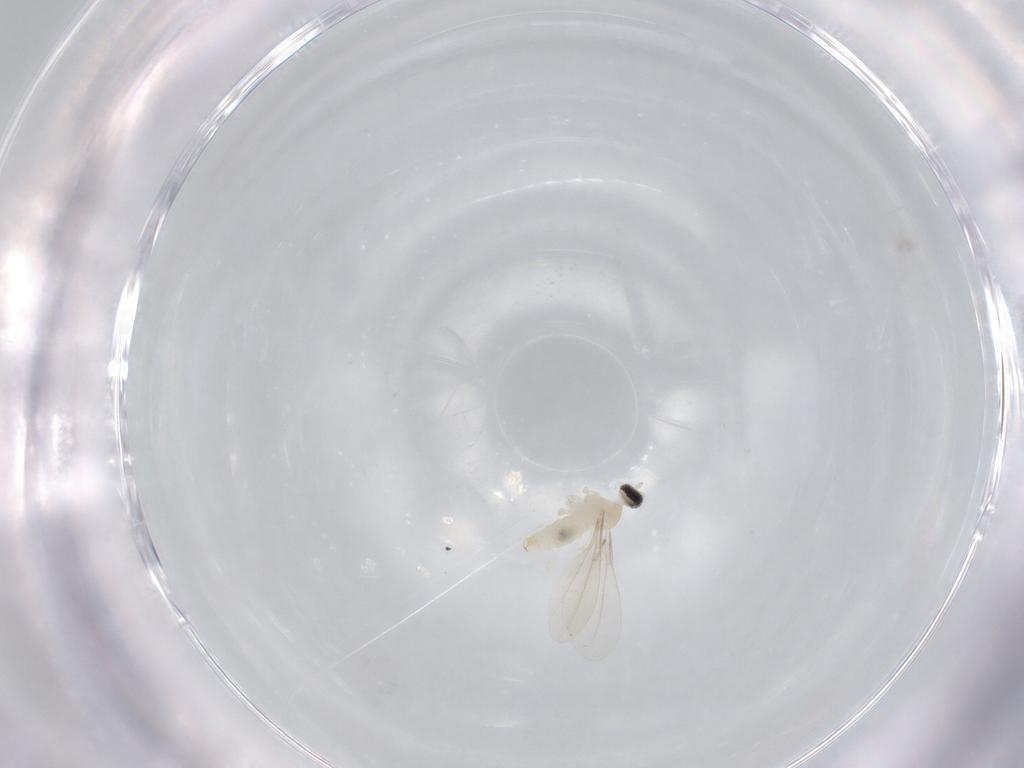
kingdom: Animalia
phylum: Arthropoda
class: Insecta
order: Diptera
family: Cecidomyiidae
